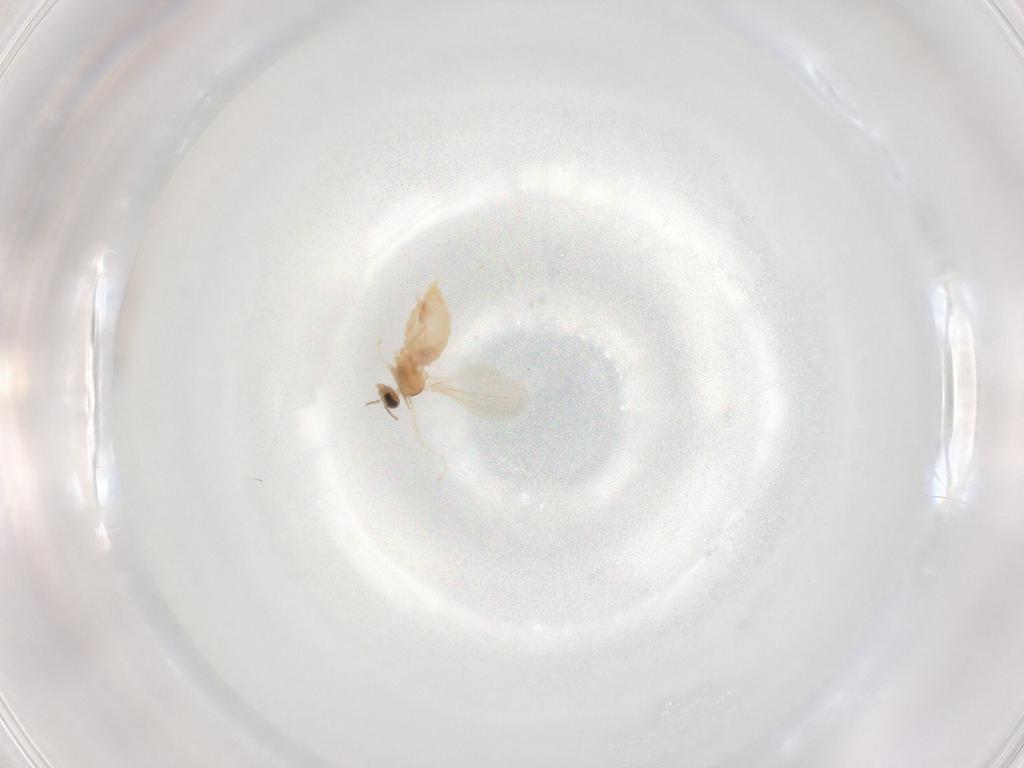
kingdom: Animalia
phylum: Arthropoda
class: Insecta
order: Diptera
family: Cecidomyiidae
